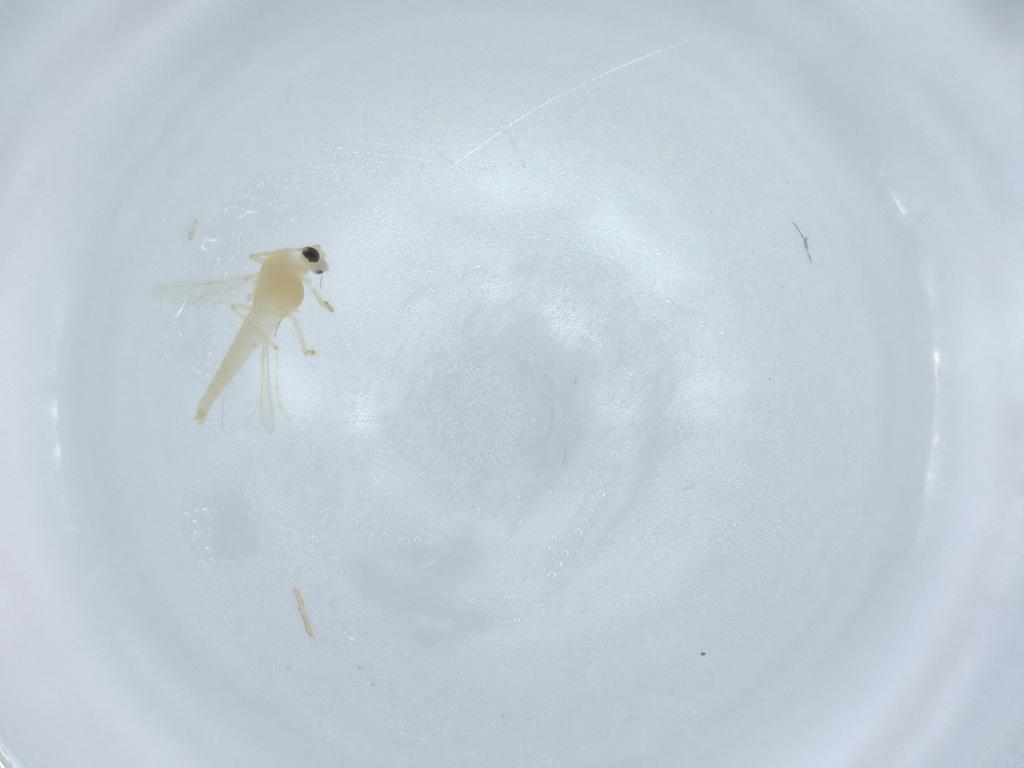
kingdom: Animalia
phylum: Arthropoda
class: Insecta
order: Diptera
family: Chironomidae
